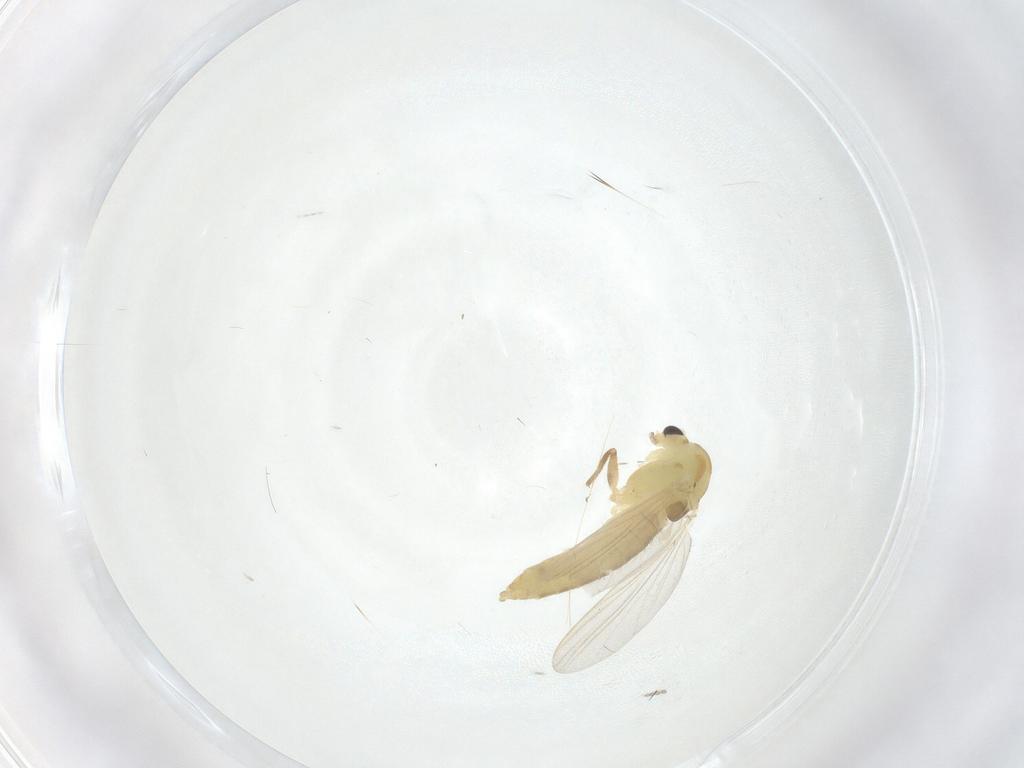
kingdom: Animalia
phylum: Arthropoda
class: Insecta
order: Diptera
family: Chironomidae
